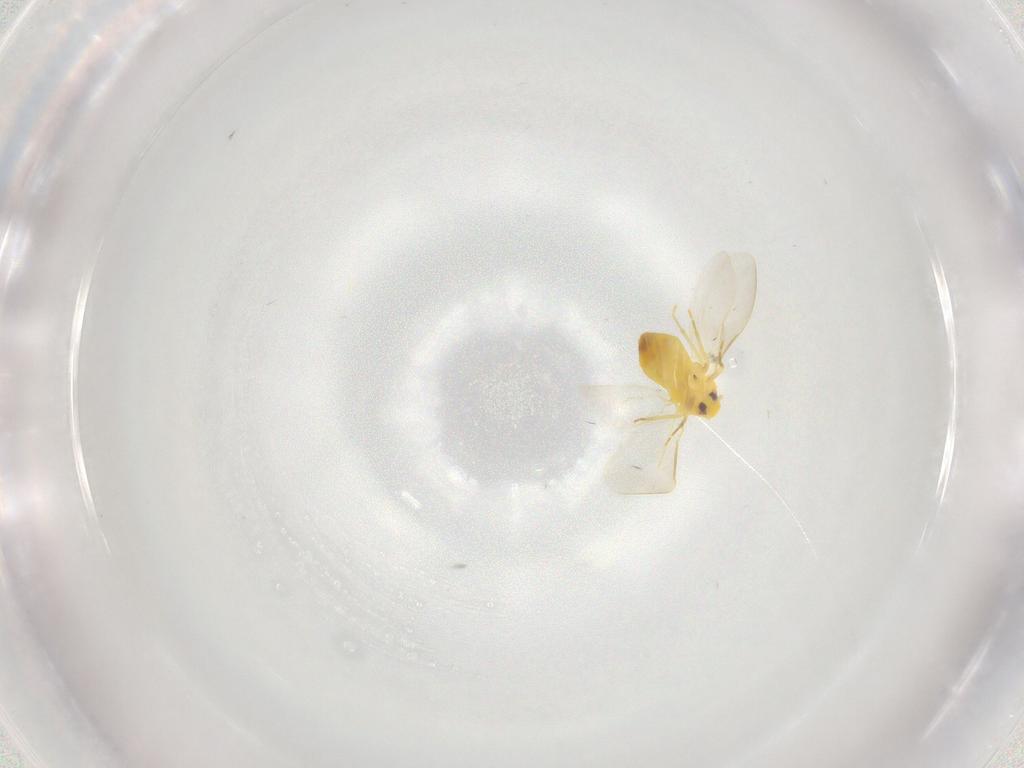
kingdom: Animalia
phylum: Arthropoda
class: Insecta
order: Hemiptera
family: Aleyrodidae
